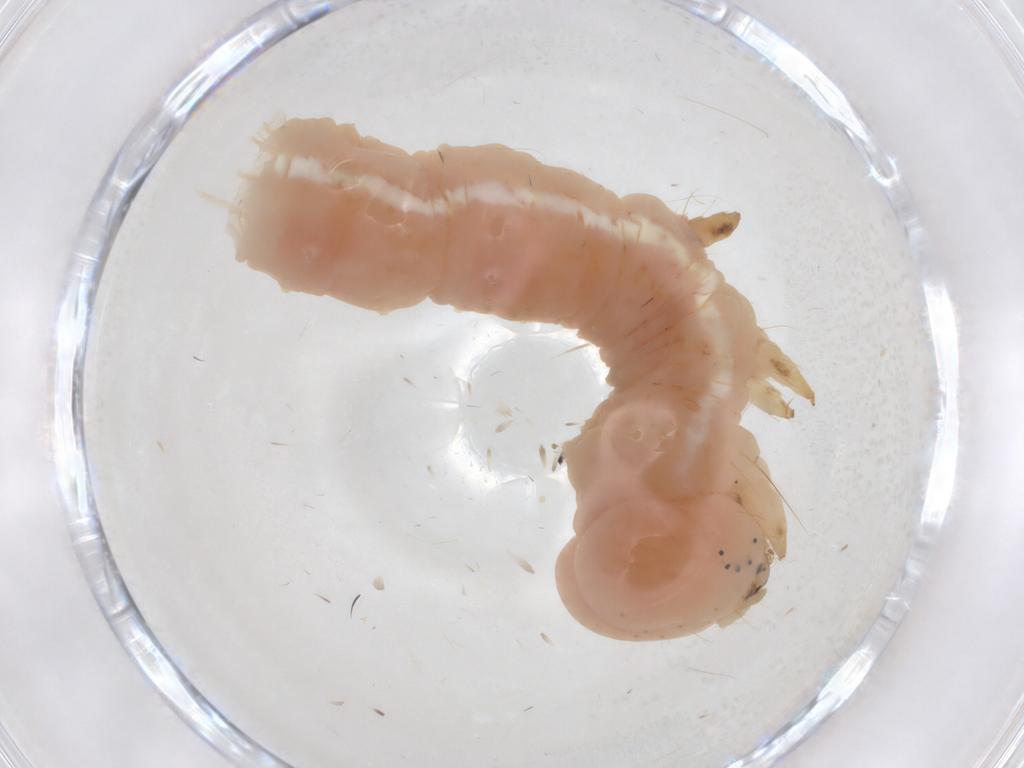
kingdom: Animalia
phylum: Arthropoda
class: Insecta
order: Lepidoptera
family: Erebidae
